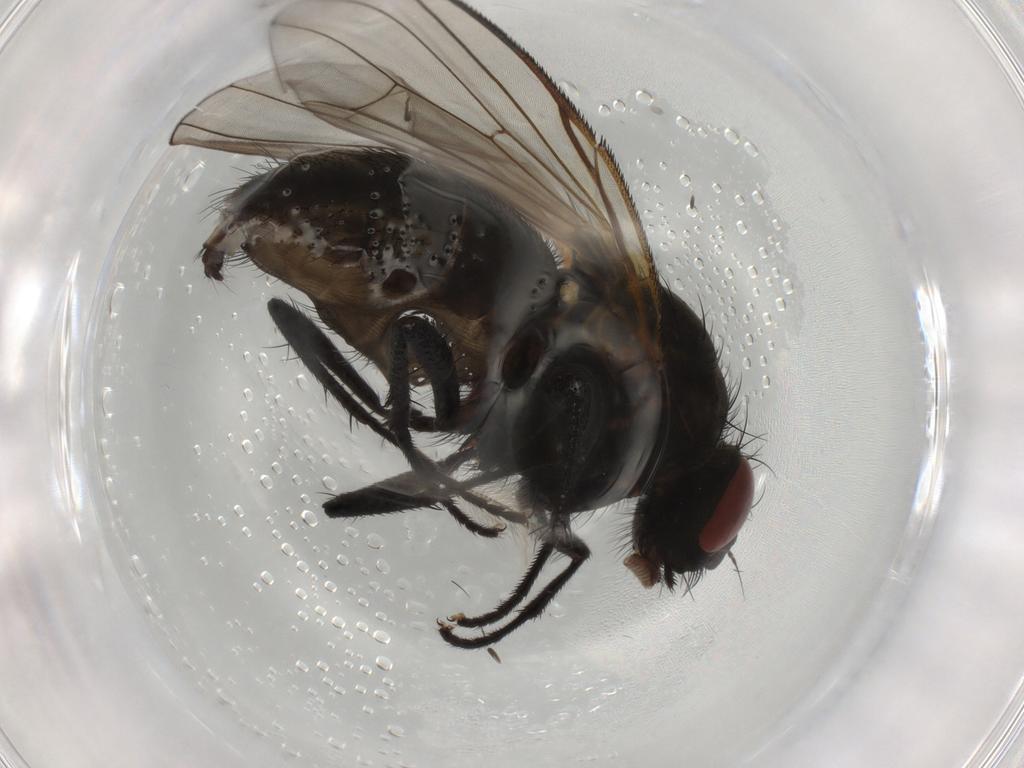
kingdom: Animalia
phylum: Arthropoda
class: Insecta
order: Diptera
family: Muscidae
